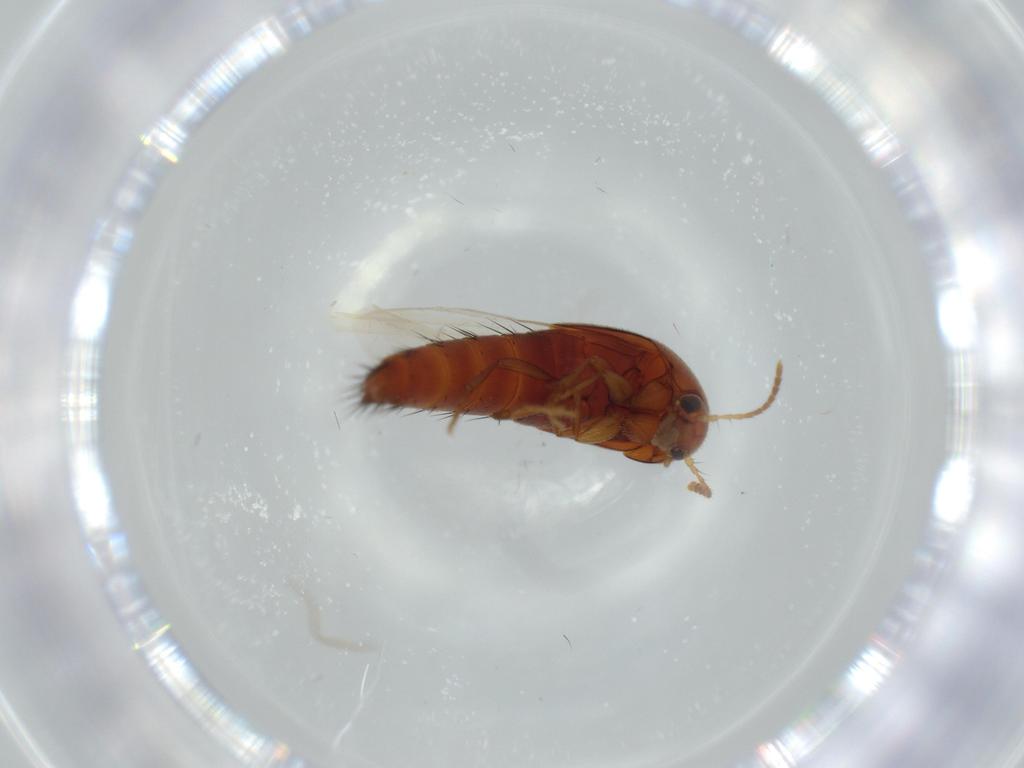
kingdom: Animalia
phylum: Arthropoda
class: Insecta
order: Coleoptera
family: Staphylinidae
